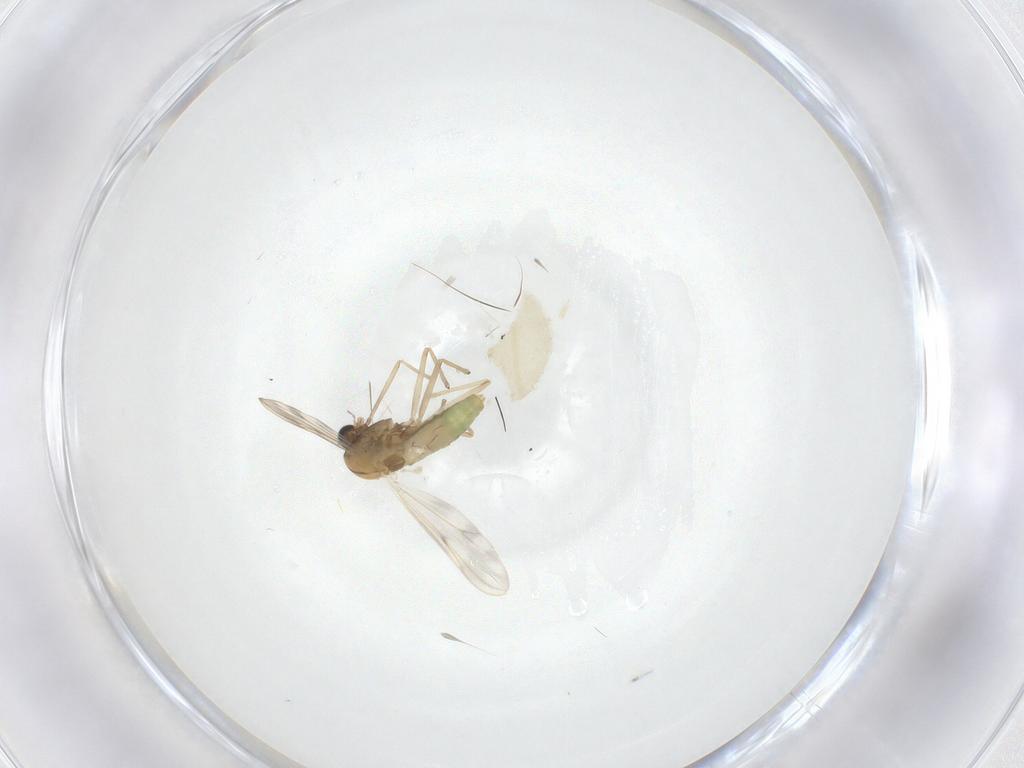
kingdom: Animalia
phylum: Arthropoda
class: Insecta
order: Diptera
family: Chironomidae
